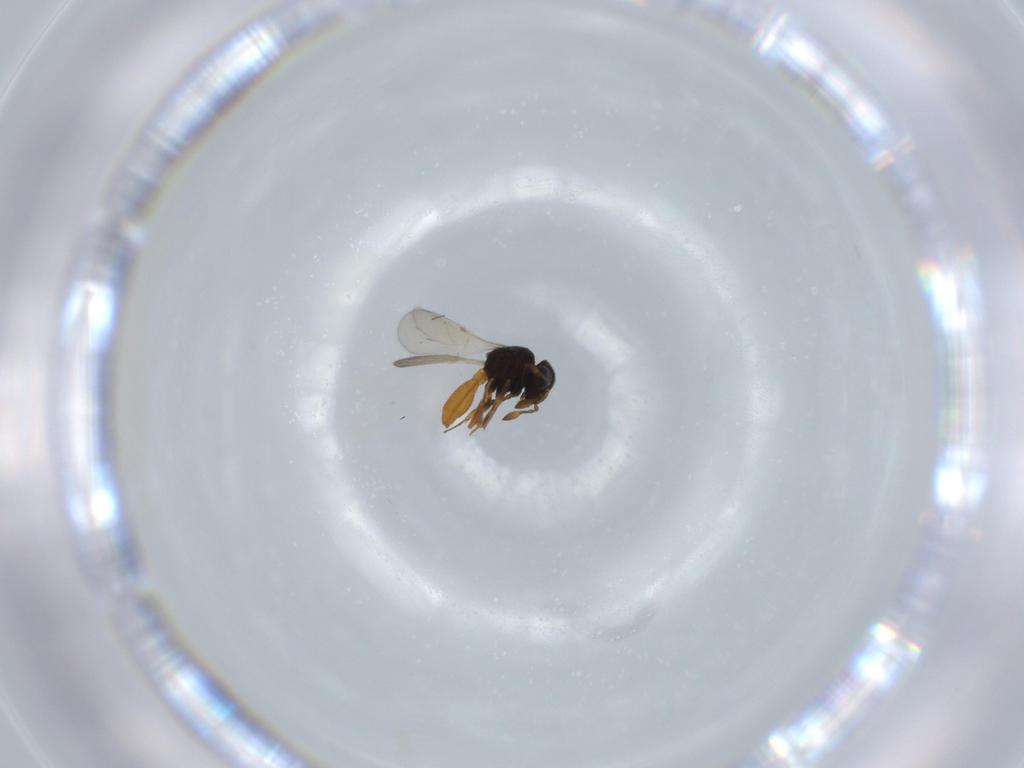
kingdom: Animalia
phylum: Arthropoda
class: Insecta
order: Hymenoptera
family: Scelionidae
